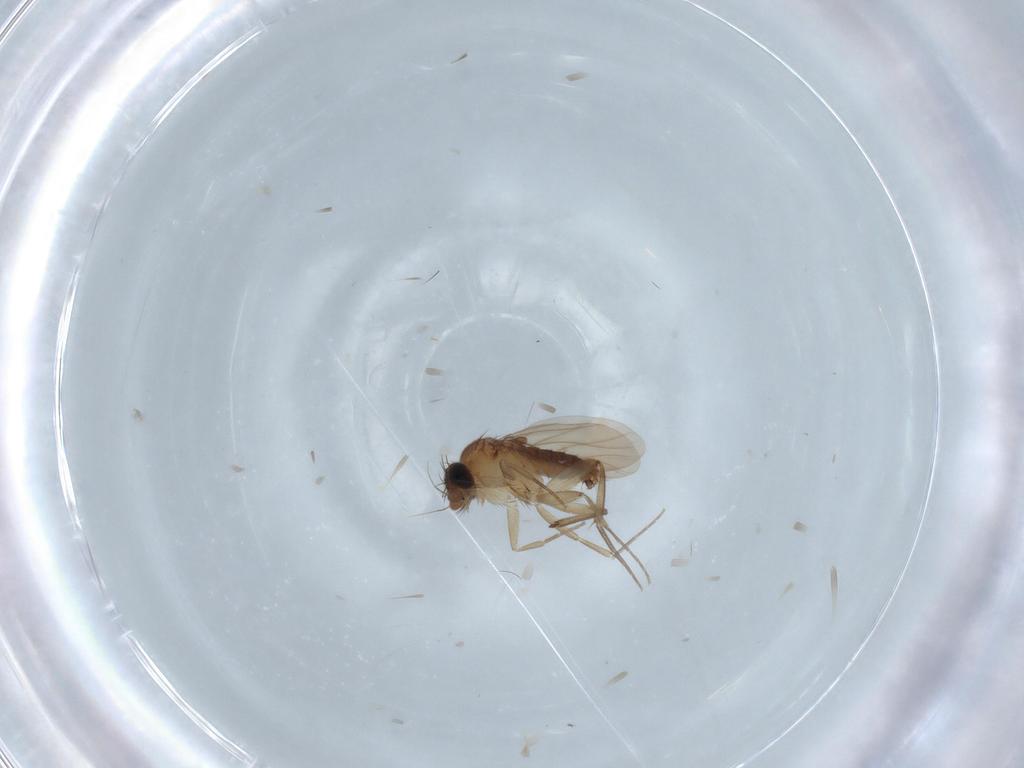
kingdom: Animalia
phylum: Arthropoda
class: Insecta
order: Diptera
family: Phoridae
